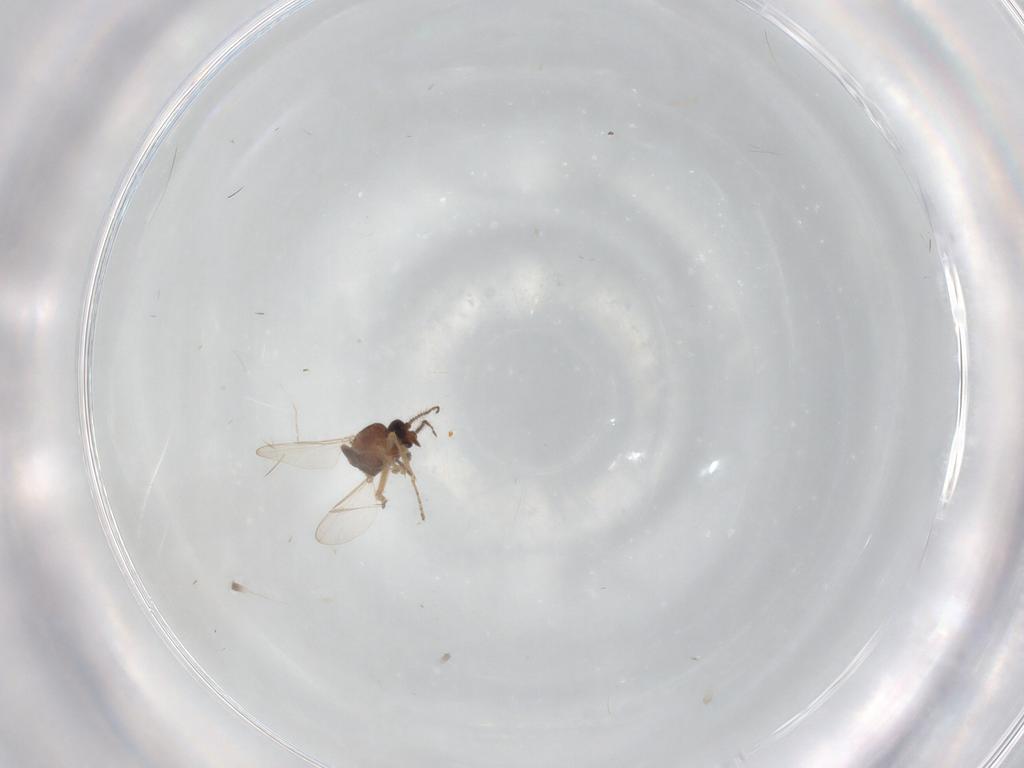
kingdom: Animalia
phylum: Arthropoda
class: Insecta
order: Diptera
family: Ceratopogonidae
